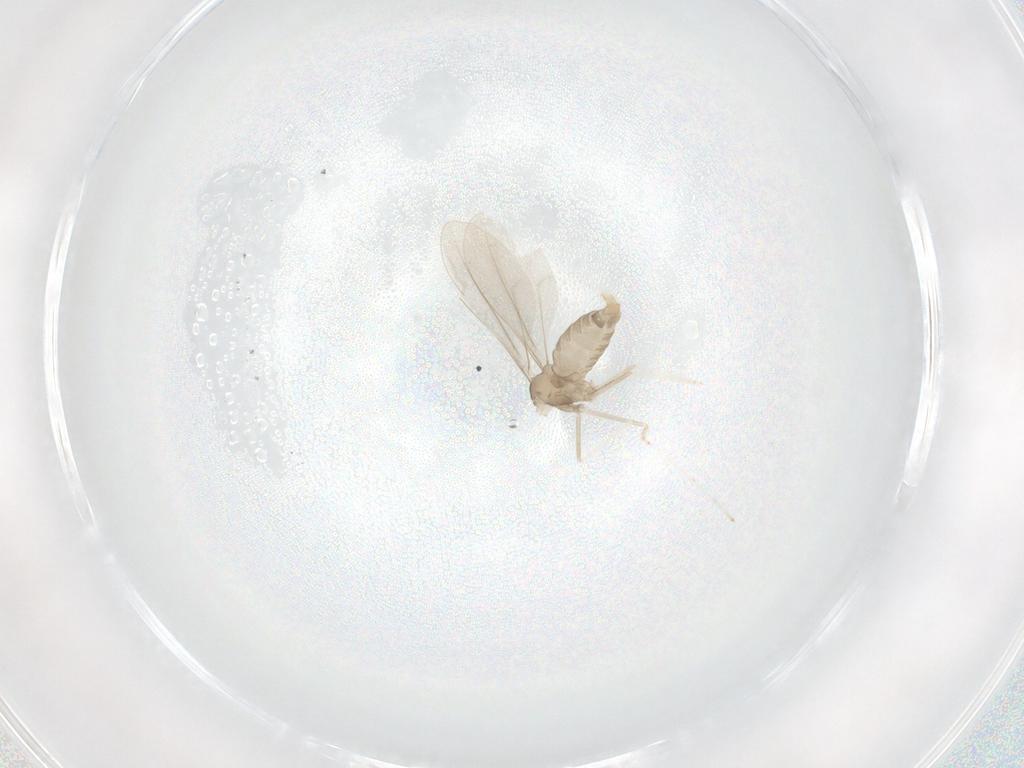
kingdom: Animalia
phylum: Arthropoda
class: Insecta
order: Diptera
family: Cecidomyiidae
